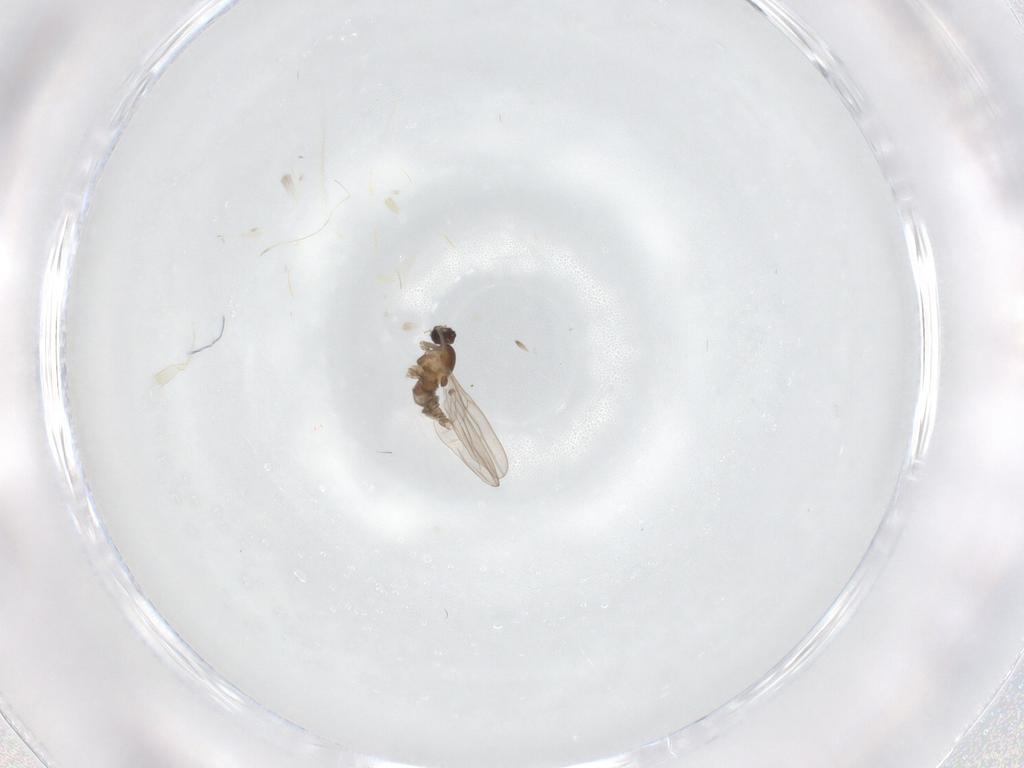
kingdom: Animalia
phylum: Arthropoda
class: Insecta
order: Diptera
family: Cecidomyiidae
